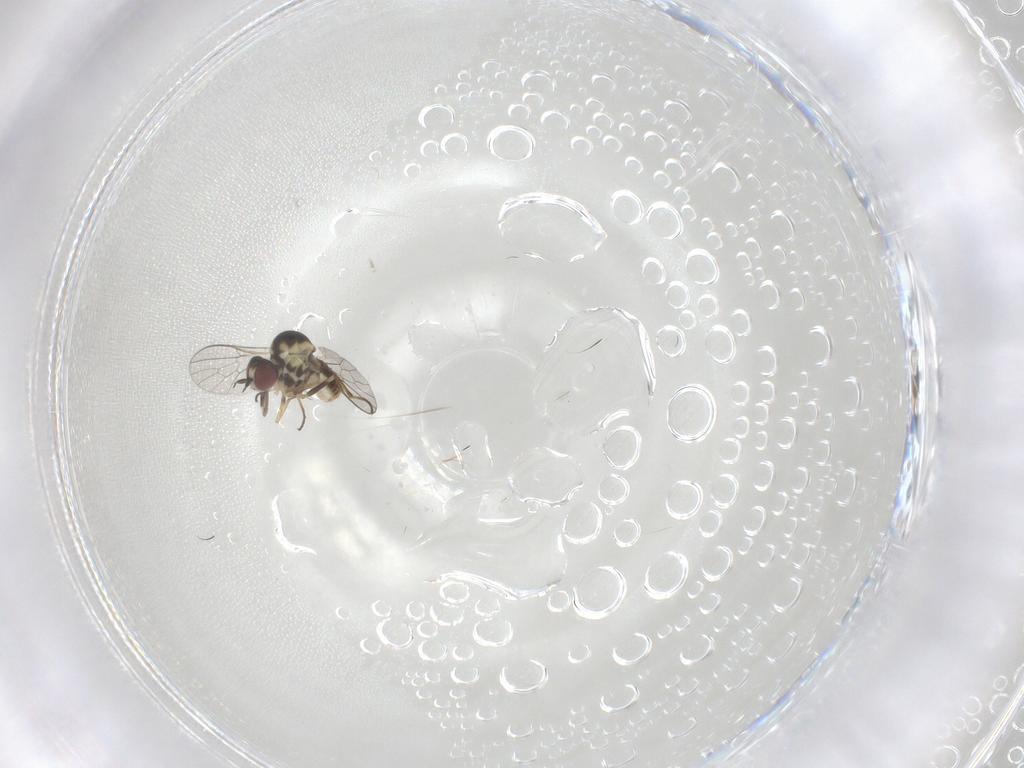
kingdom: Animalia
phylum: Arthropoda
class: Insecta
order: Diptera
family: Bombyliidae
